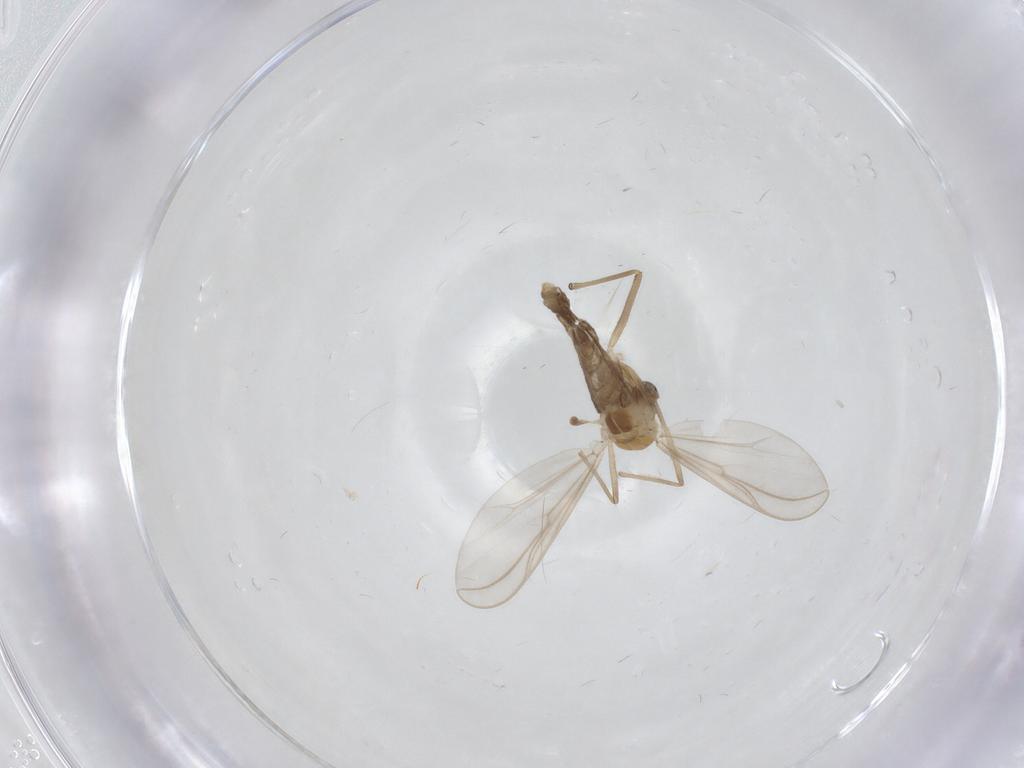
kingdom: Animalia
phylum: Arthropoda
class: Insecta
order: Diptera
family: Chironomidae
